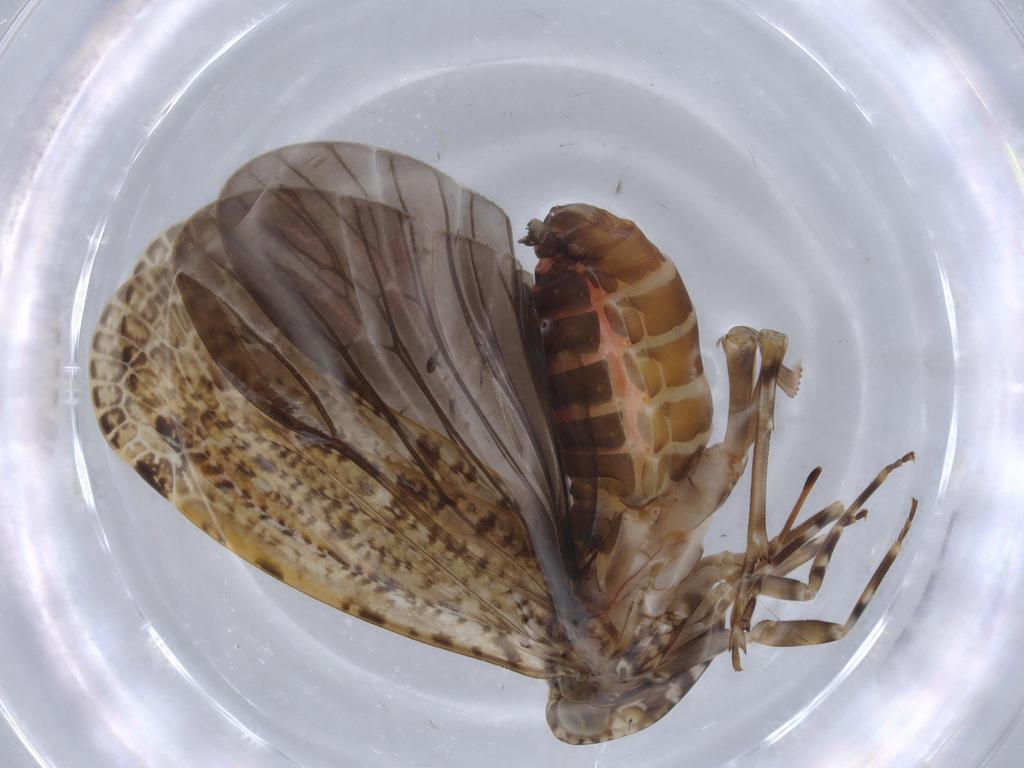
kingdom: Animalia
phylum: Arthropoda
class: Insecta
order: Hemiptera
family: Achilidae
